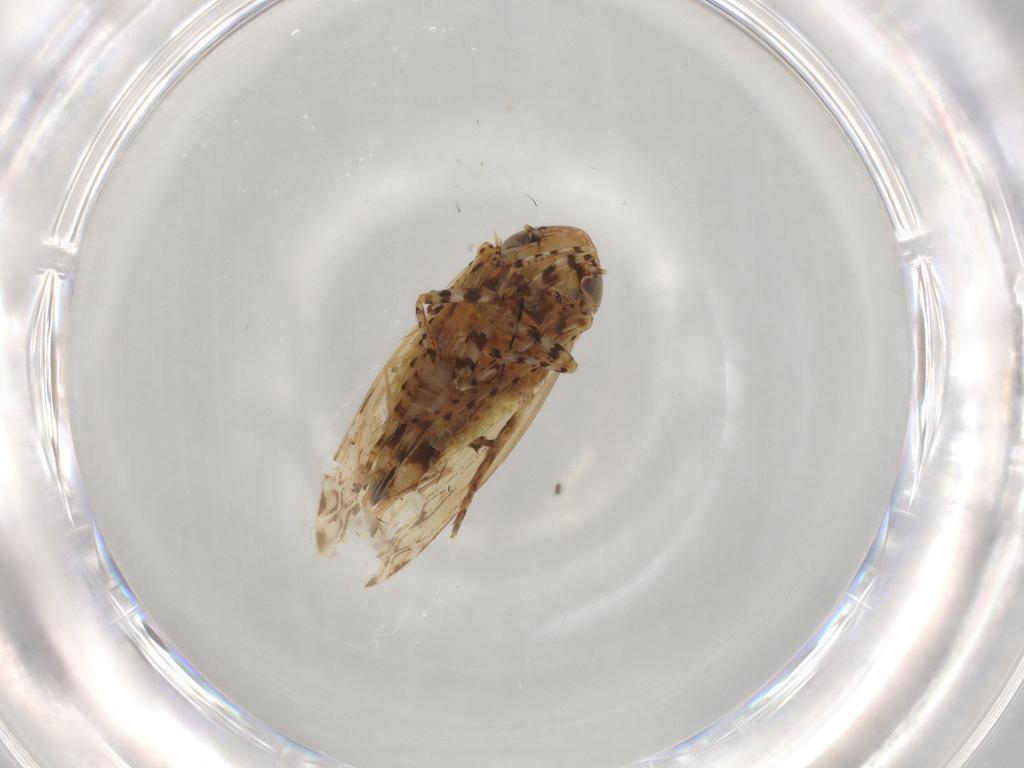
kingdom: Animalia
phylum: Arthropoda
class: Insecta
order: Hemiptera
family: Cicadellidae
